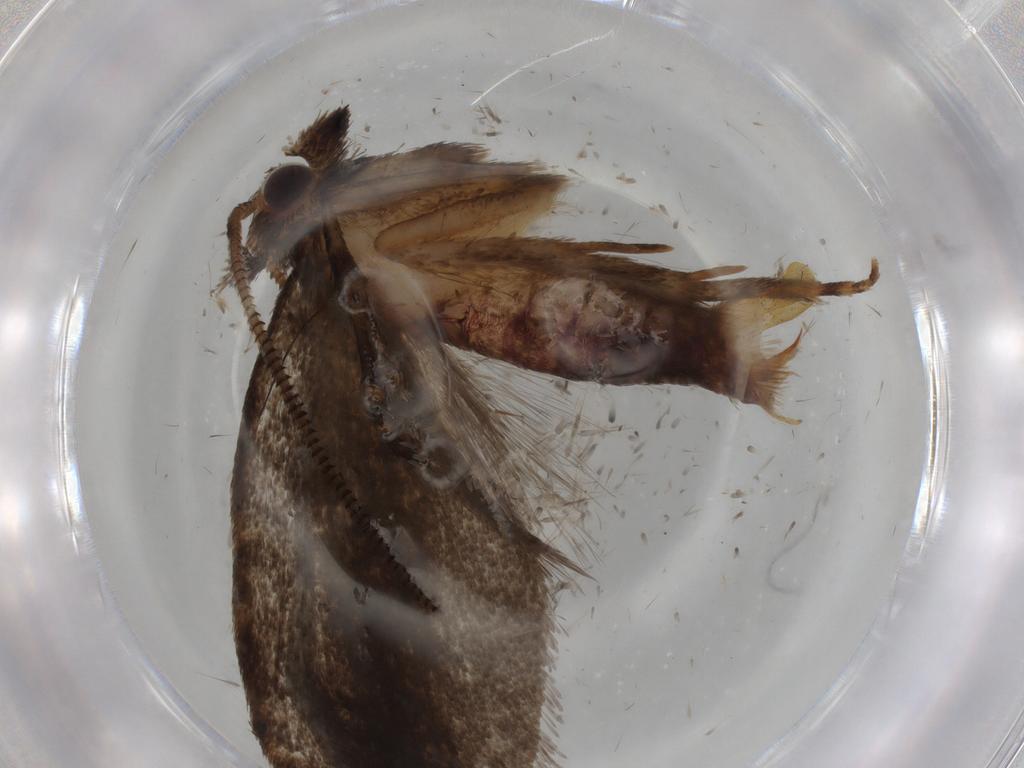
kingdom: Animalia
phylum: Arthropoda
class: Insecta
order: Lepidoptera
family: Tineidae
